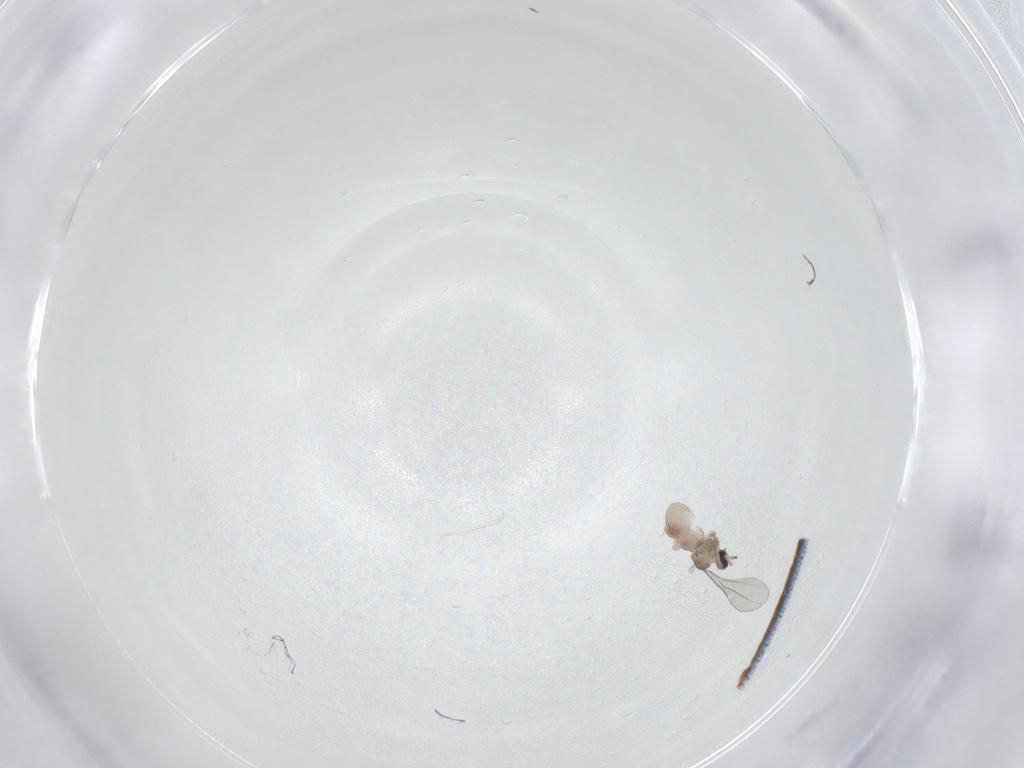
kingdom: Animalia
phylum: Arthropoda
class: Insecta
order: Diptera
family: Cecidomyiidae
